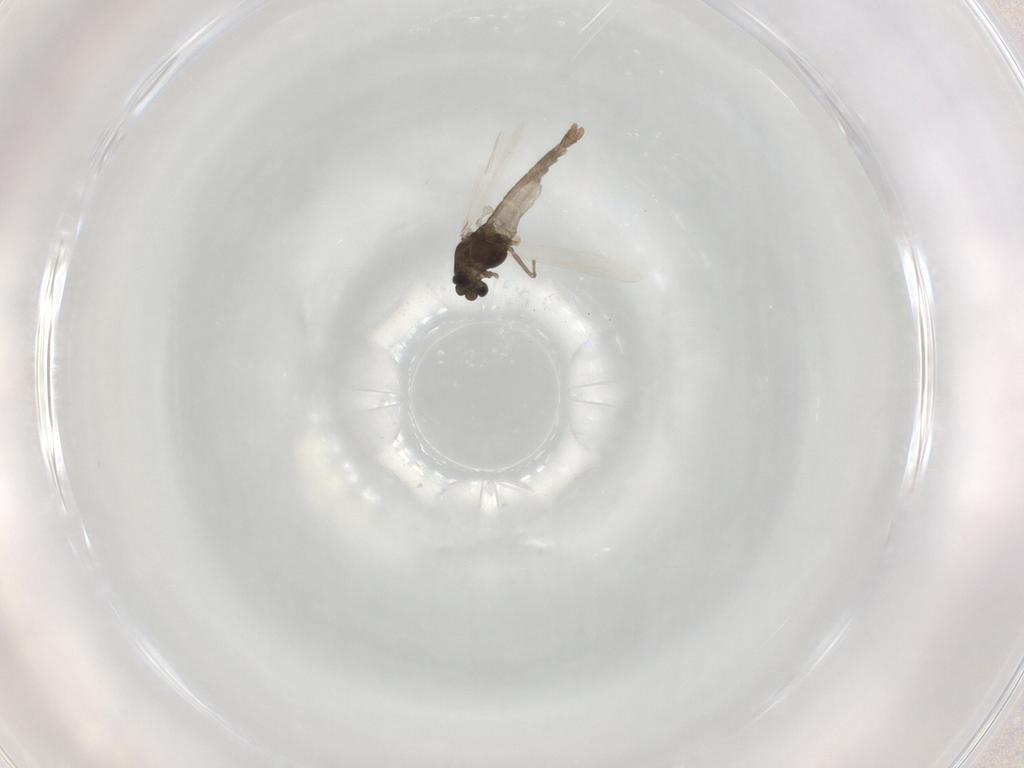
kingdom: Animalia
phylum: Arthropoda
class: Insecta
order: Diptera
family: Chironomidae
